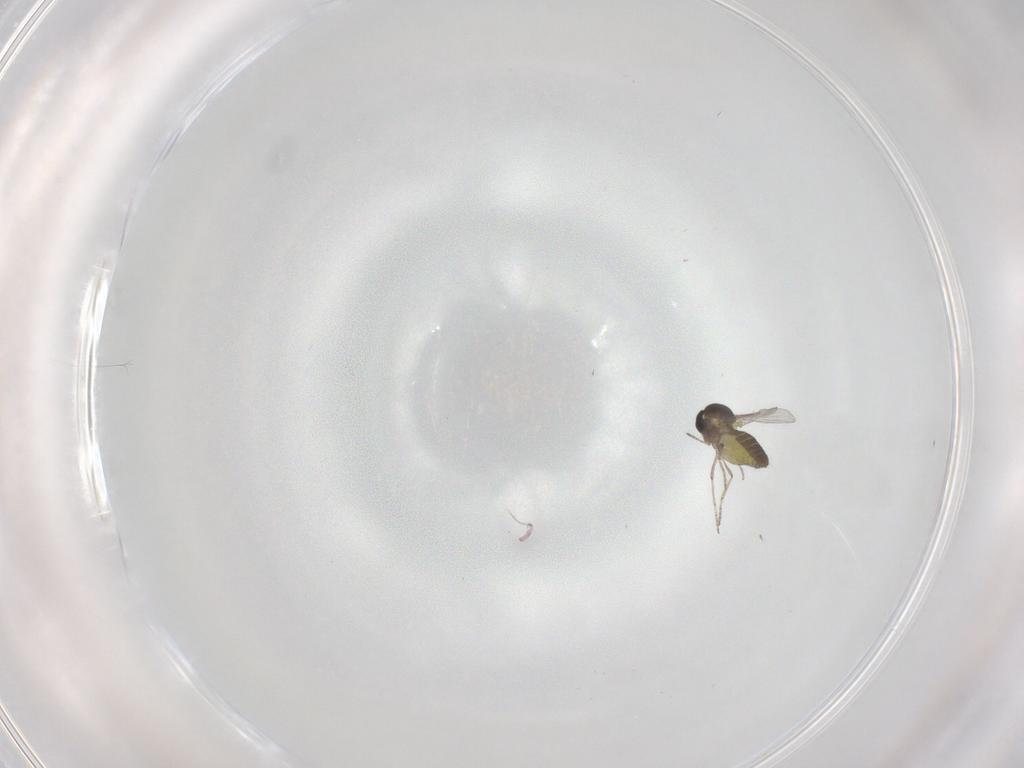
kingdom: Animalia
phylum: Arthropoda
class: Insecta
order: Diptera
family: Ceratopogonidae
